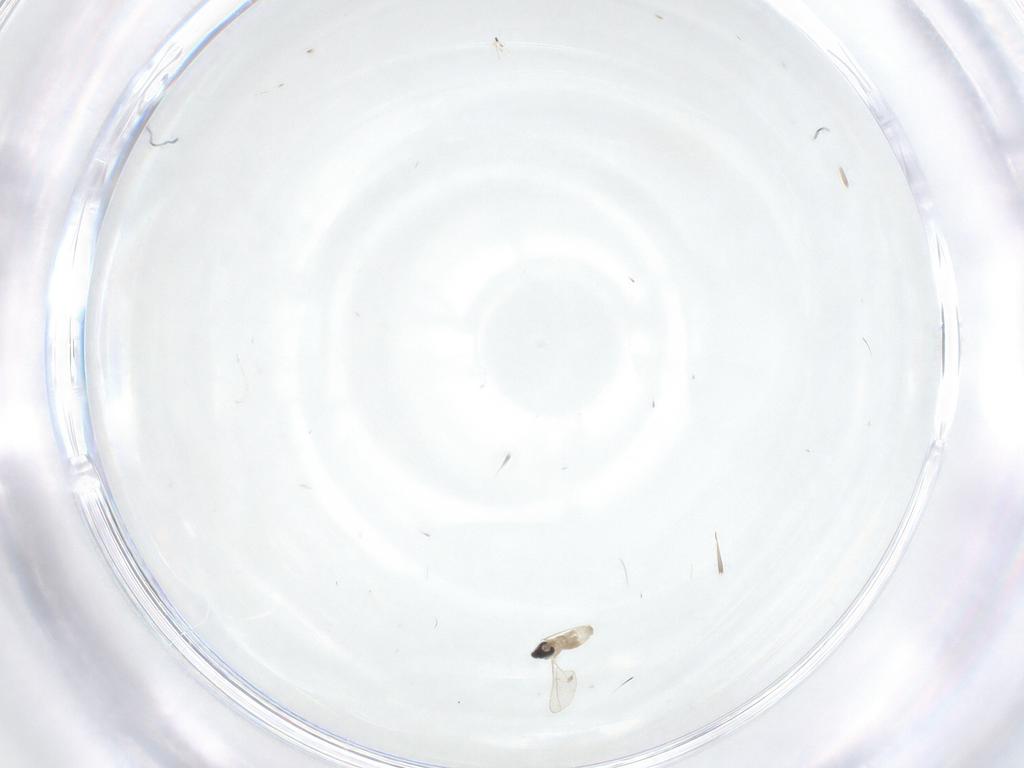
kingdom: Animalia
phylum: Arthropoda
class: Insecta
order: Diptera
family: Cecidomyiidae
